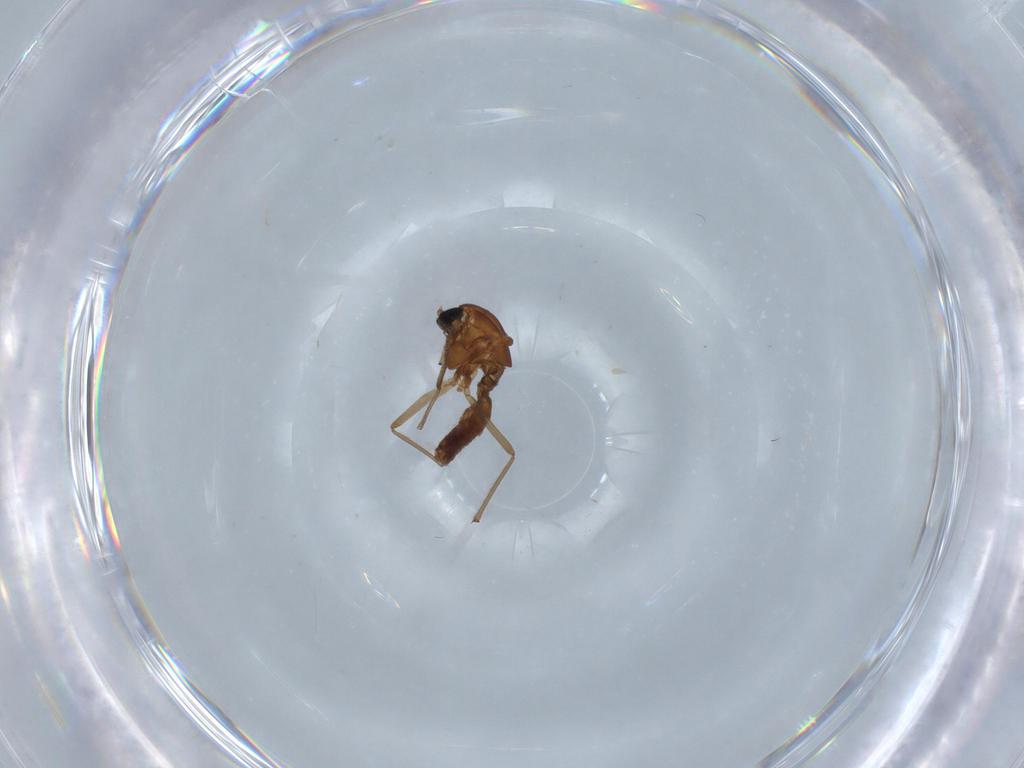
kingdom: Animalia
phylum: Arthropoda
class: Insecta
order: Diptera
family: Chironomidae
